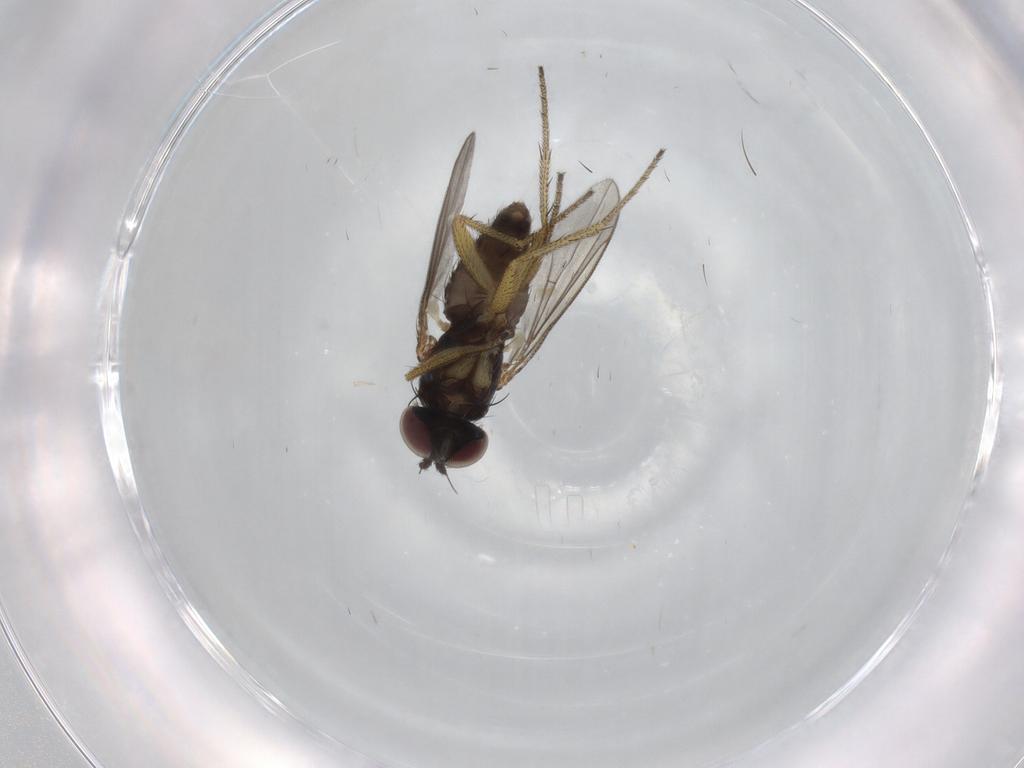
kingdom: Animalia
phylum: Arthropoda
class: Insecta
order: Diptera
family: Dolichopodidae
